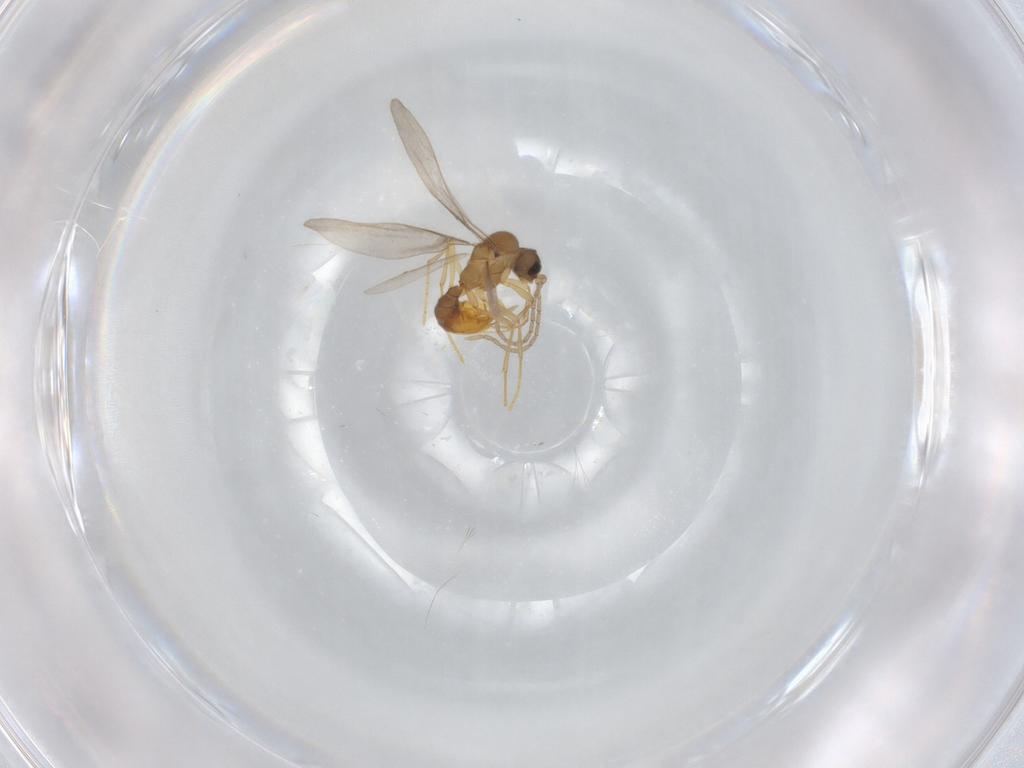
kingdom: Animalia
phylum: Arthropoda
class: Insecta
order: Hymenoptera
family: Formicidae
